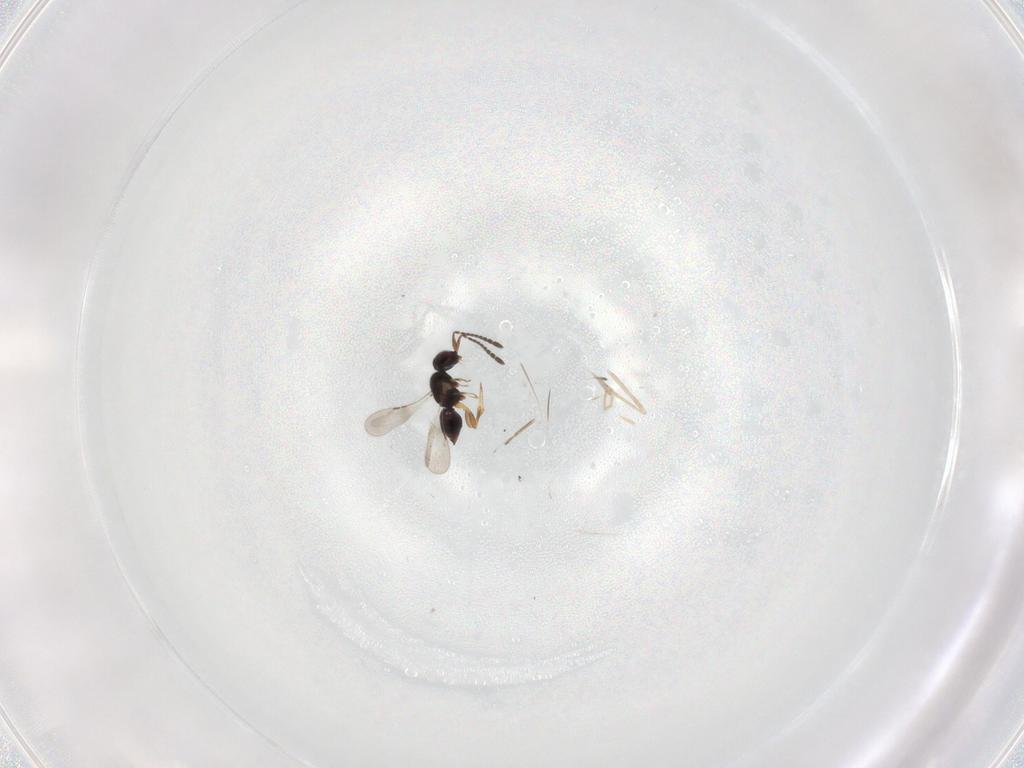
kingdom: Animalia
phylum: Arthropoda
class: Insecta
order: Hymenoptera
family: Scelionidae
